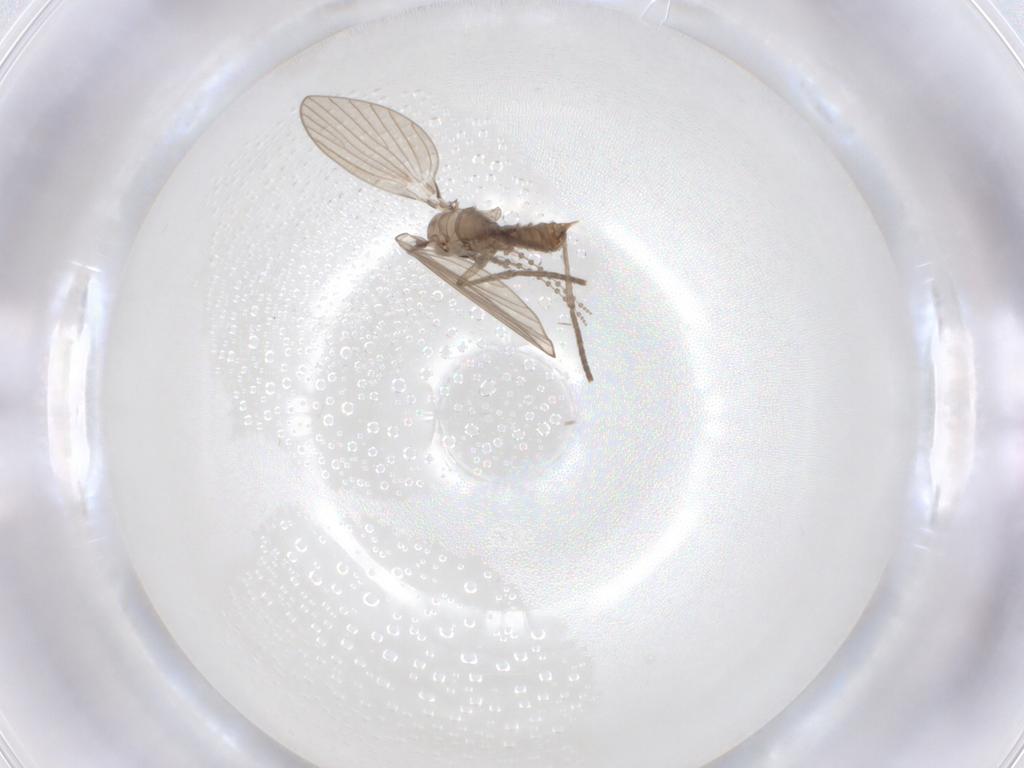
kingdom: Animalia
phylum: Arthropoda
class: Insecta
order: Diptera
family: Psychodidae
